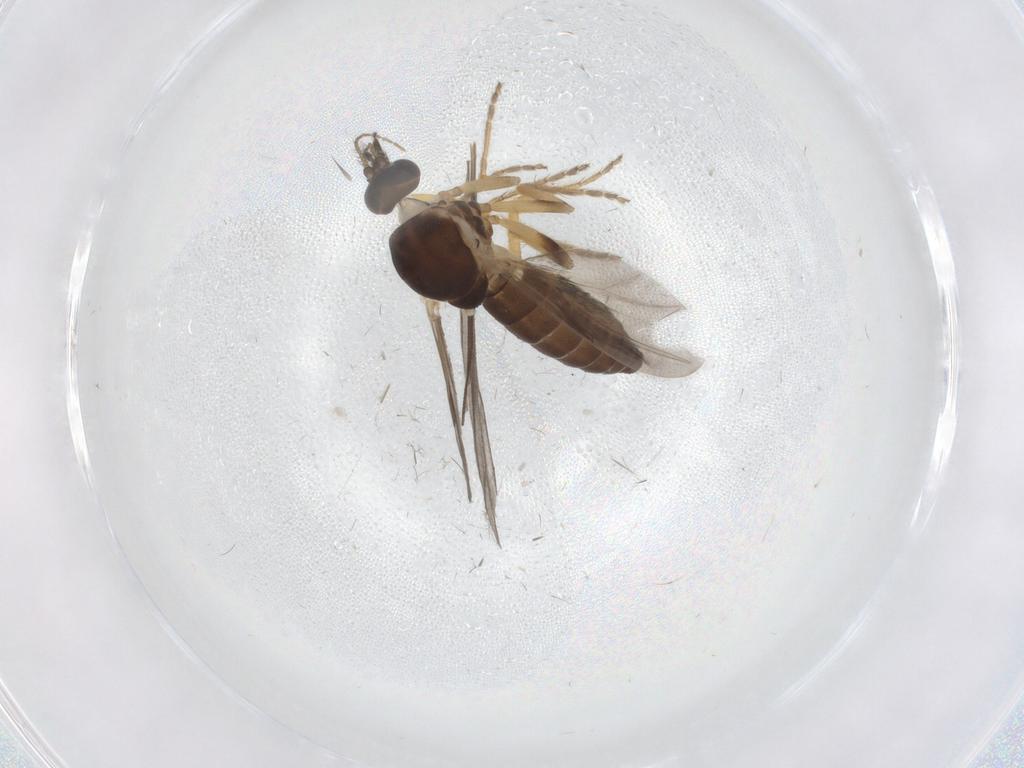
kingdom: Animalia
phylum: Arthropoda
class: Insecta
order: Diptera
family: Ceratopogonidae
